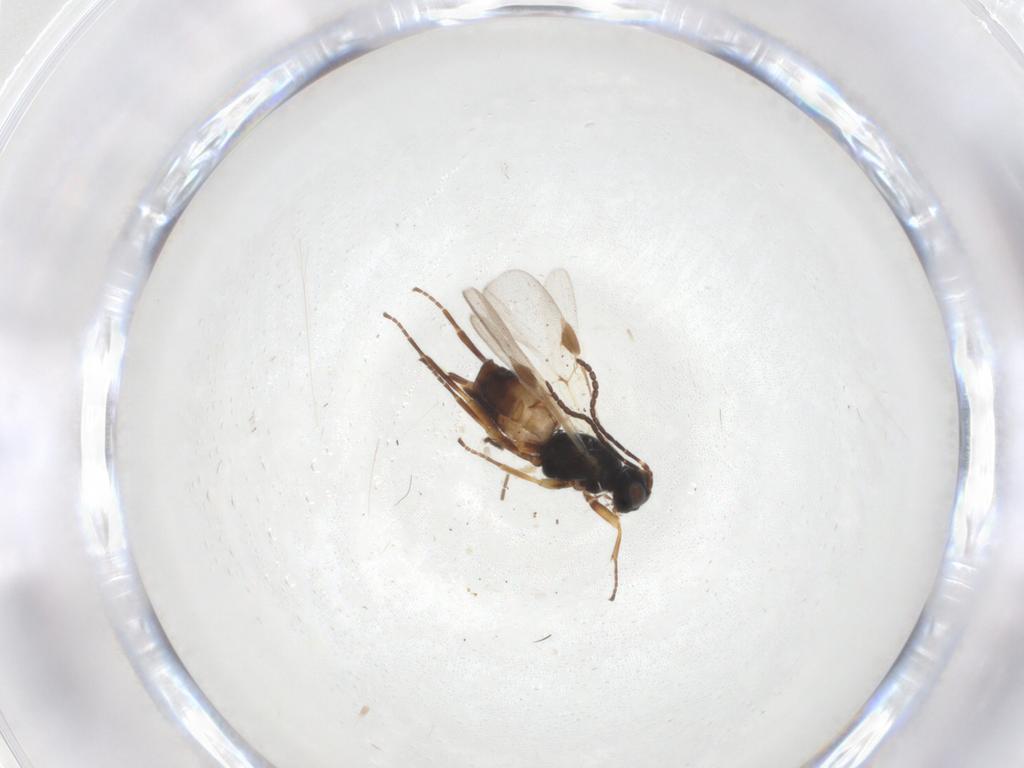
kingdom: Animalia
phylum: Arthropoda
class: Insecta
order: Hymenoptera
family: Braconidae
